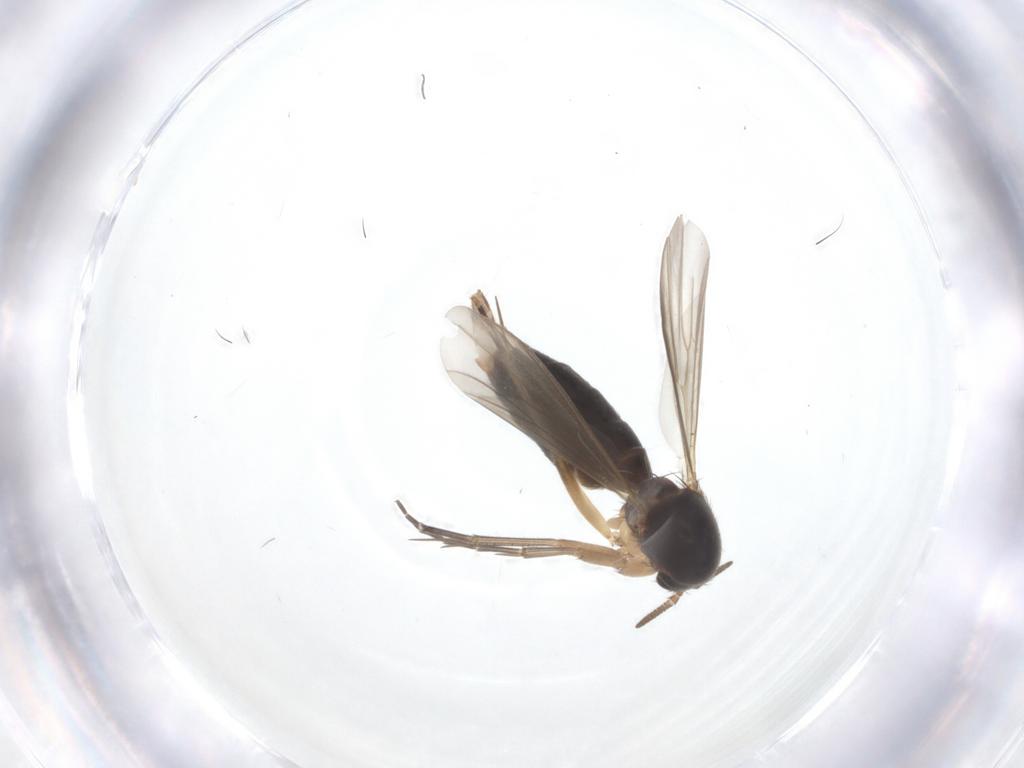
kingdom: Animalia
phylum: Arthropoda
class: Insecta
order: Diptera
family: Mycetophilidae
